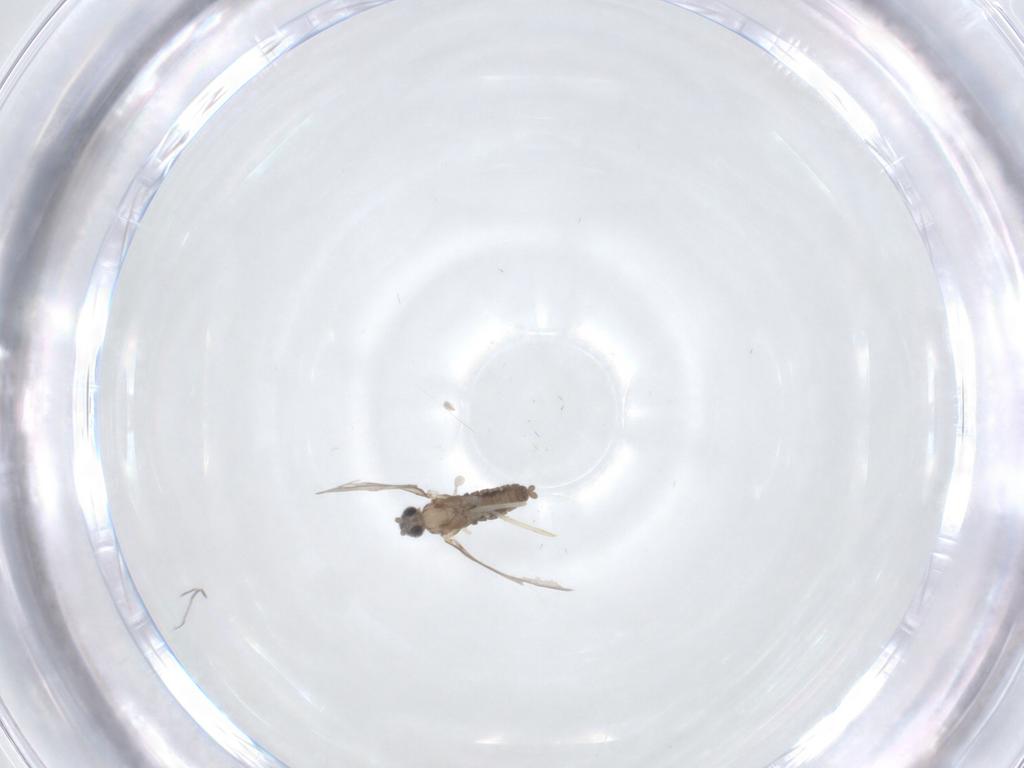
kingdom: Animalia
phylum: Arthropoda
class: Insecta
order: Diptera
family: Cecidomyiidae
